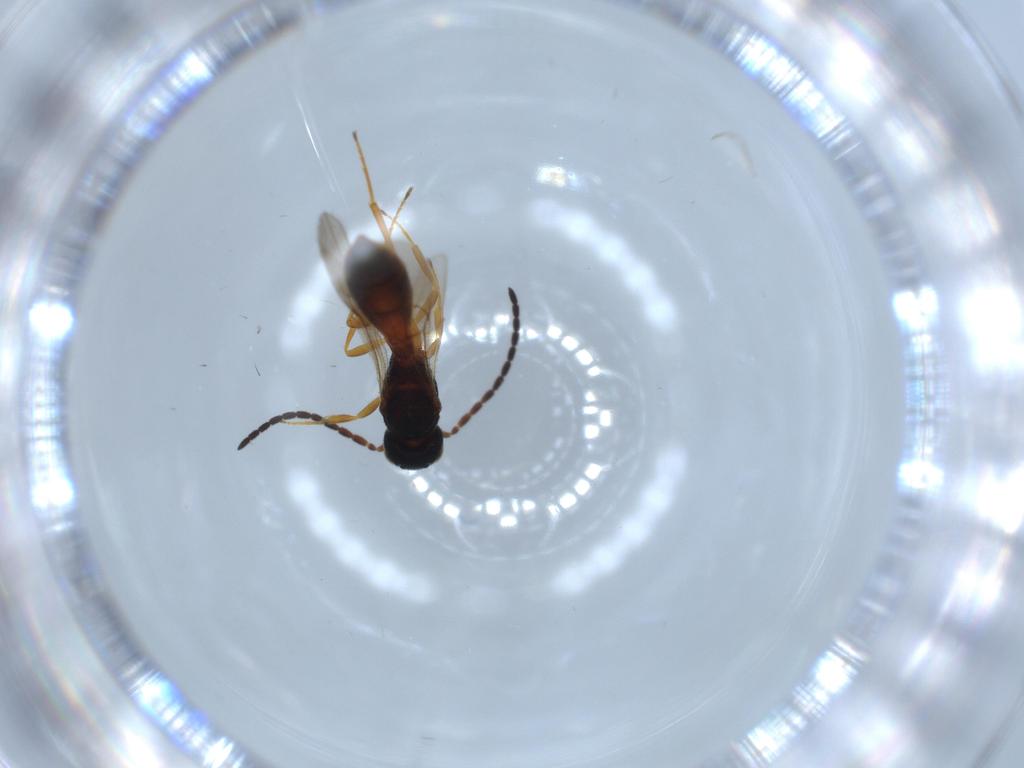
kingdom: Animalia
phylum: Arthropoda
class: Insecta
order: Hymenoptera
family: Scelionidae
